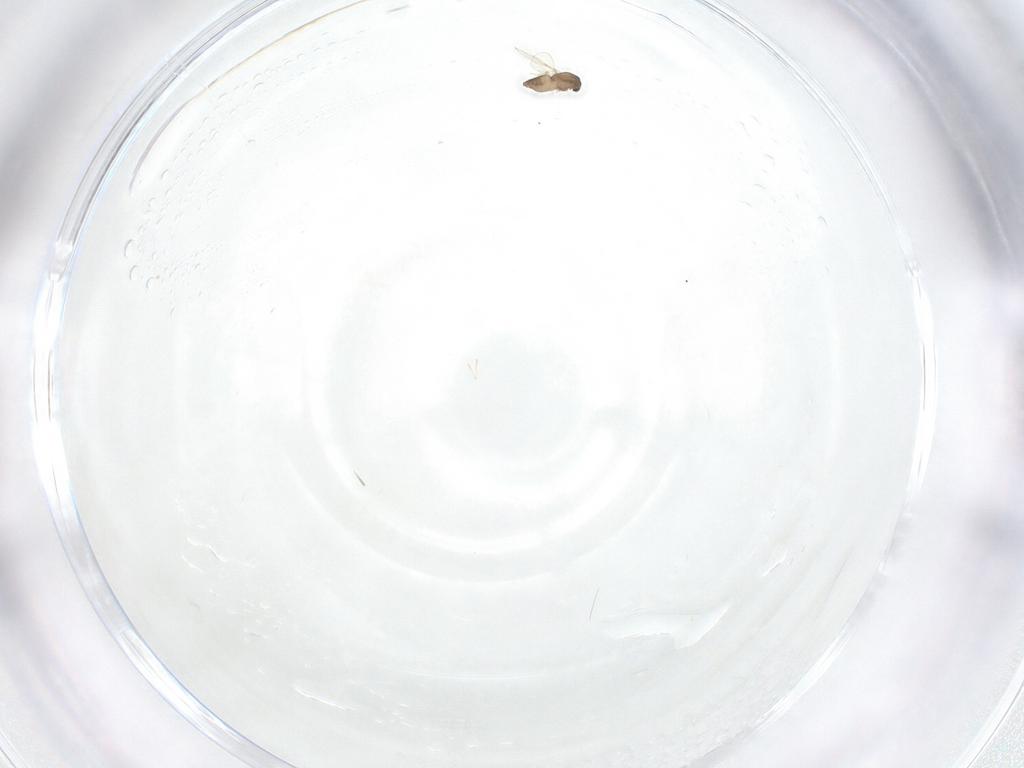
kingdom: Animalia
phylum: Arthropoda
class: Insecta
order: Diptera
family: Chironomidae
